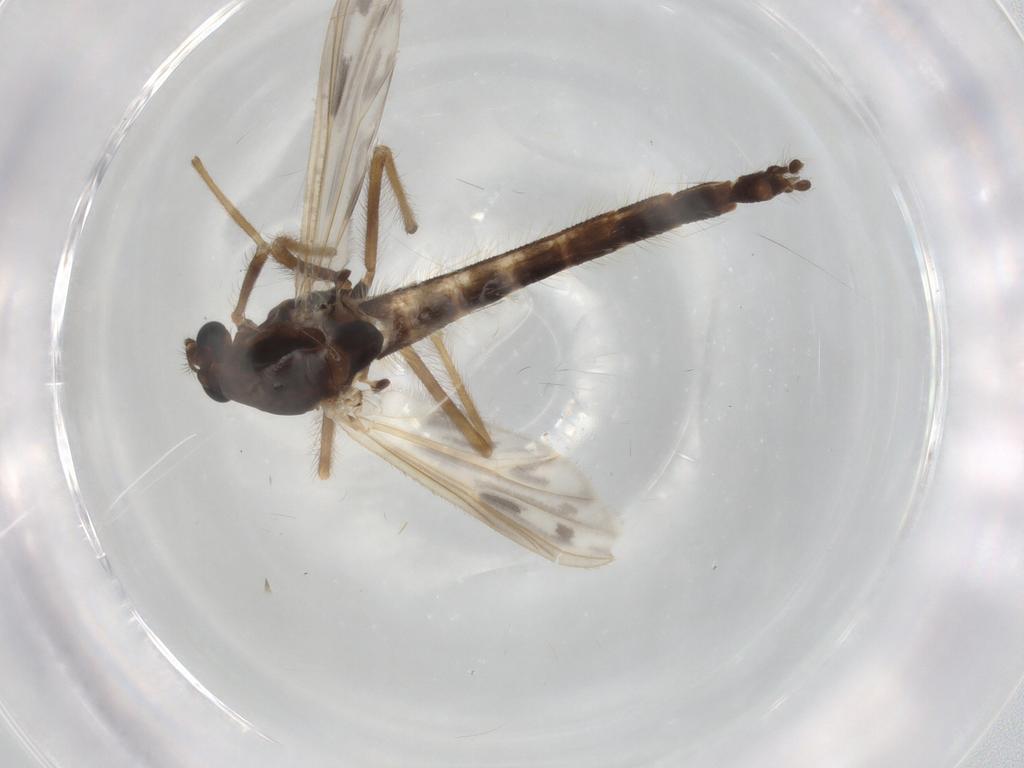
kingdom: Animalia
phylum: Arthropoda
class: Insecta
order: Diptera
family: Chironomidae
